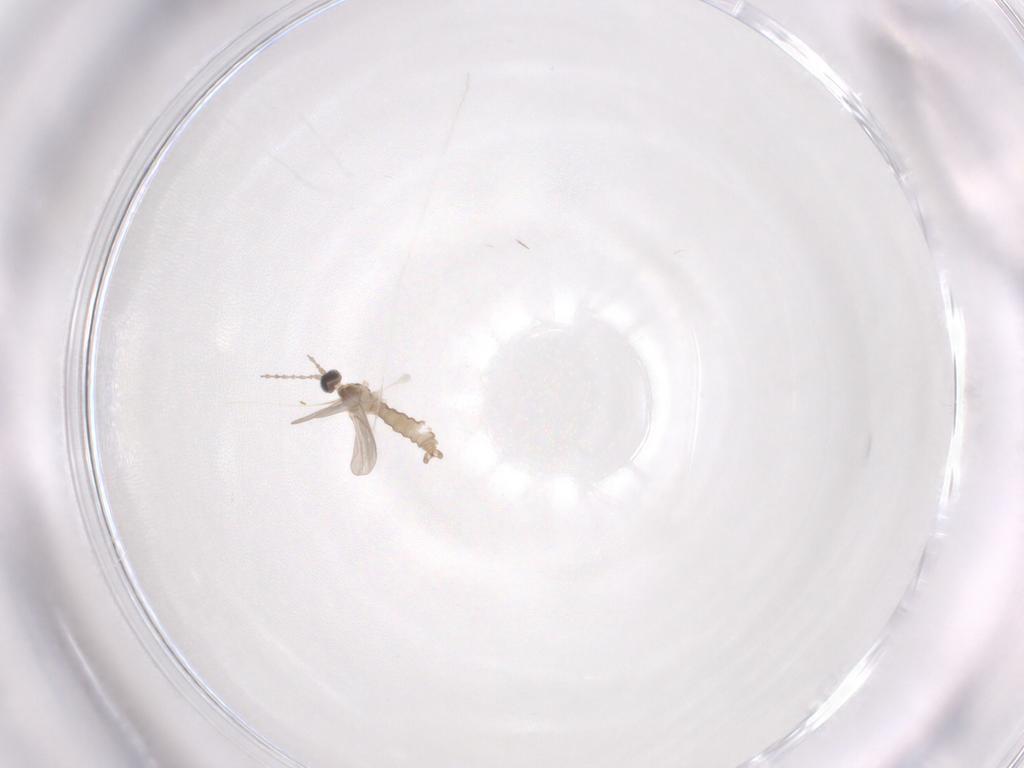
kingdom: Animalia
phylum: Arthropoda
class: Insecta
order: Diptera
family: Cecidomyiidae
